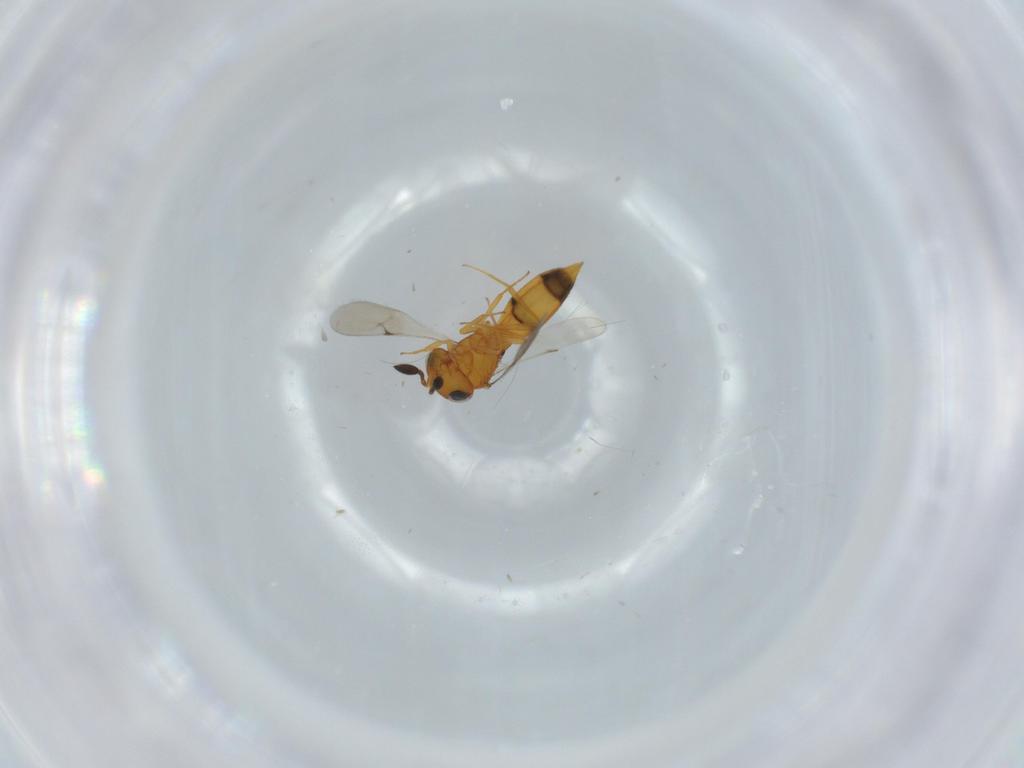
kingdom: Animalia
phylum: Arthropoda
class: Insecta
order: Hymenoptera
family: Scelionidae
